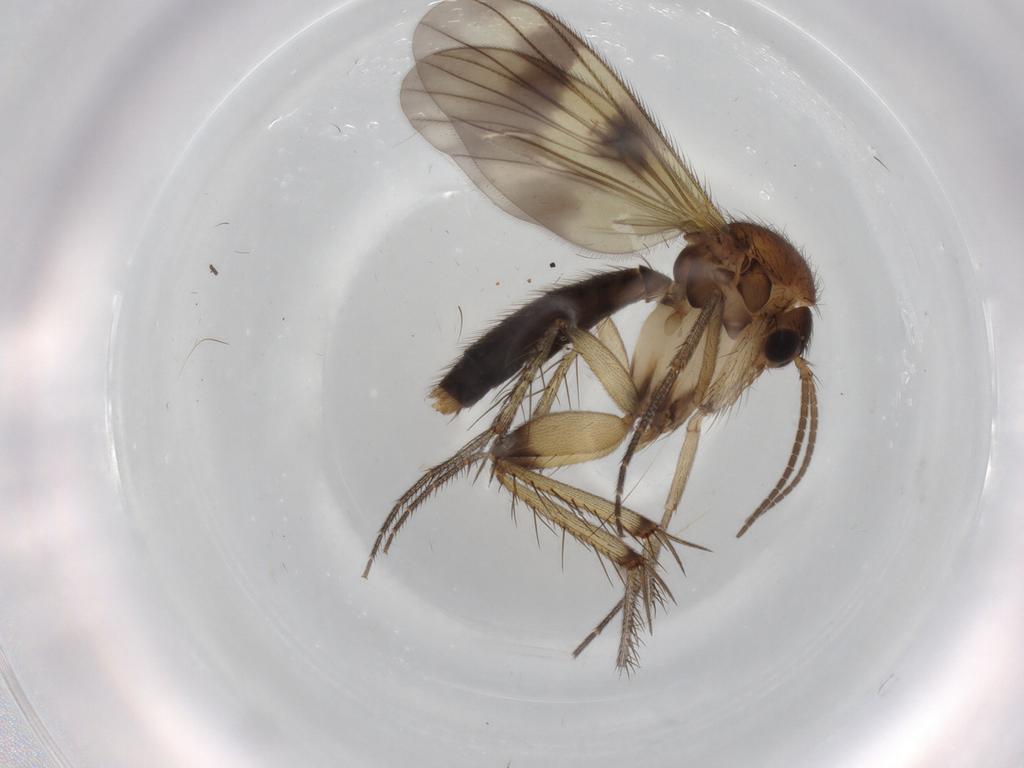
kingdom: Animalia
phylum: Arthropoda
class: Insecta
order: Diptera
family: Mycetophilidae
